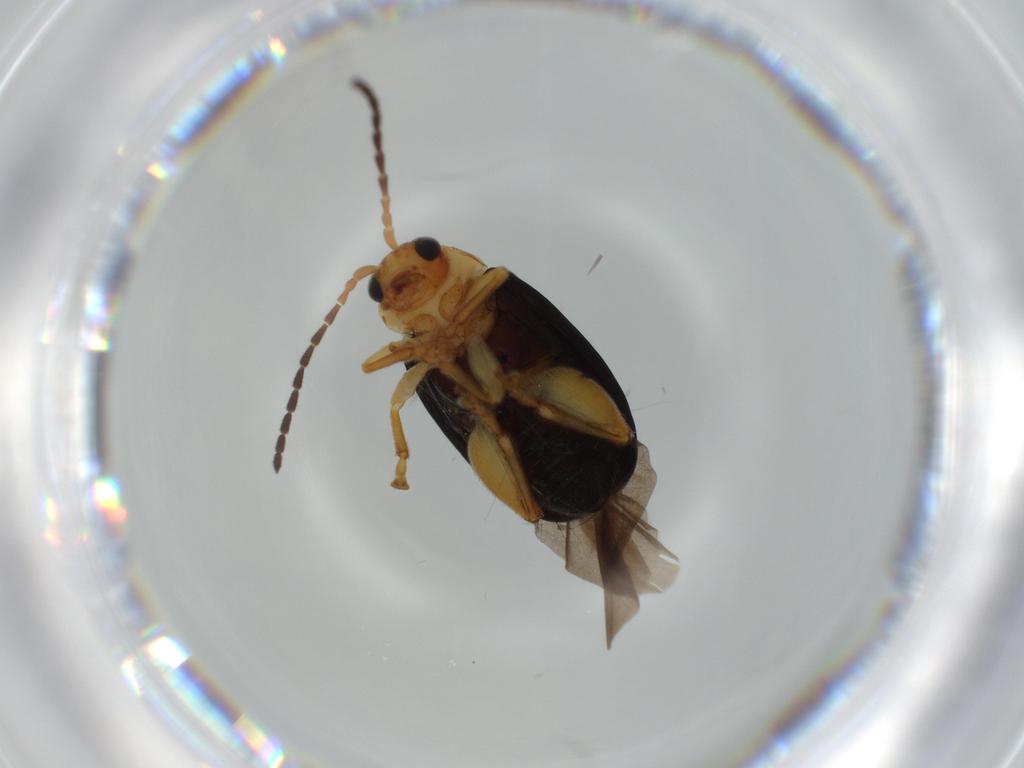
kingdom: Animalia
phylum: Arthropoda
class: Insecta
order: Coleoptera
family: Chrysomelidae
